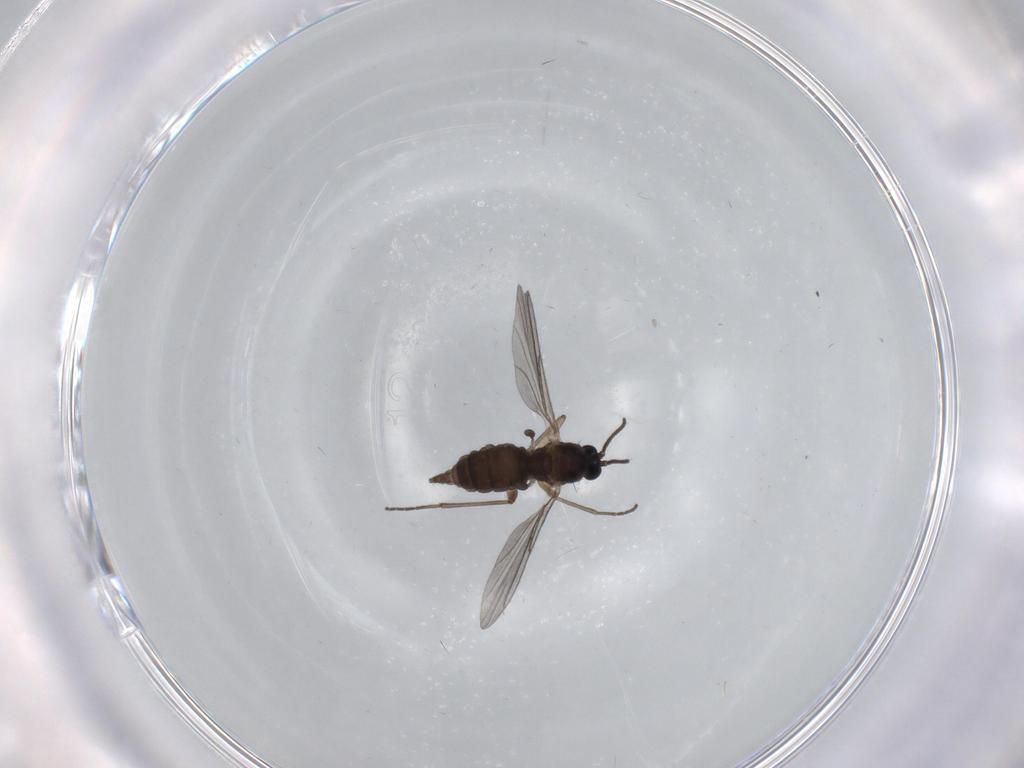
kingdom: Animalia
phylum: Arthropoda
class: Insecta
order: Diptera
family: Sciaridae
